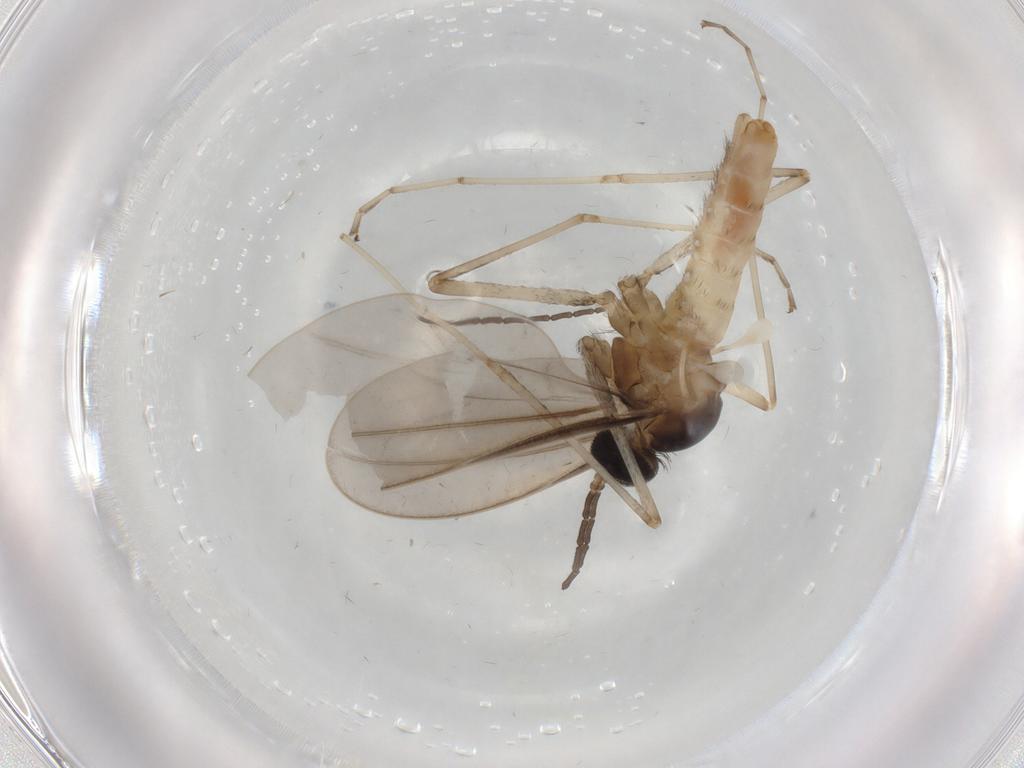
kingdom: Animalia
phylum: Arthropoda
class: Insecta
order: Diptera
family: Cecidomyiidae
